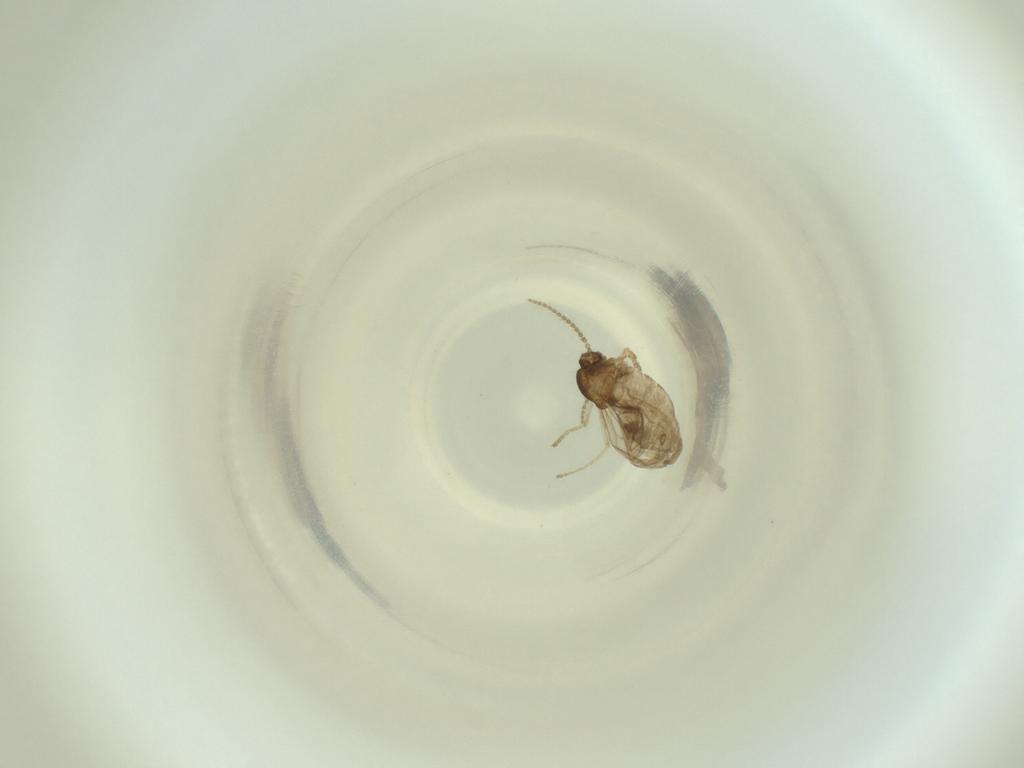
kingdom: Animalia
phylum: Arthropoda
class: Insecta
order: Diptera
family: Cecidomyiidae
